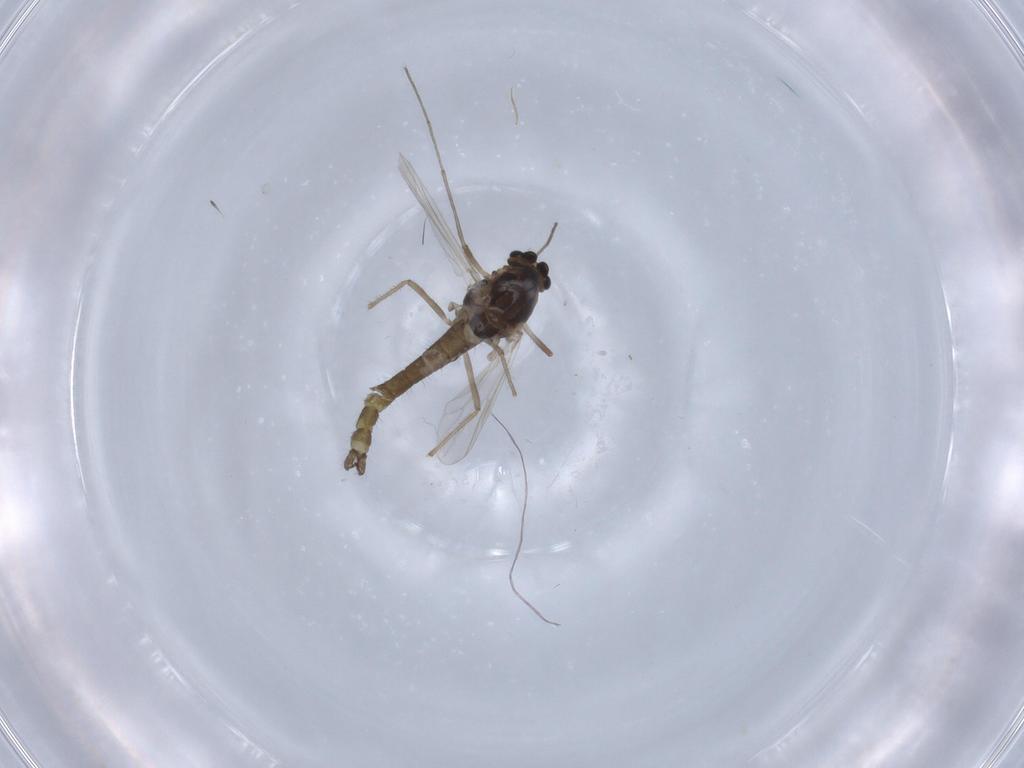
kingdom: Animalia
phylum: Arthropoda
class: Insecta
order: Diptera
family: Chironomidae
